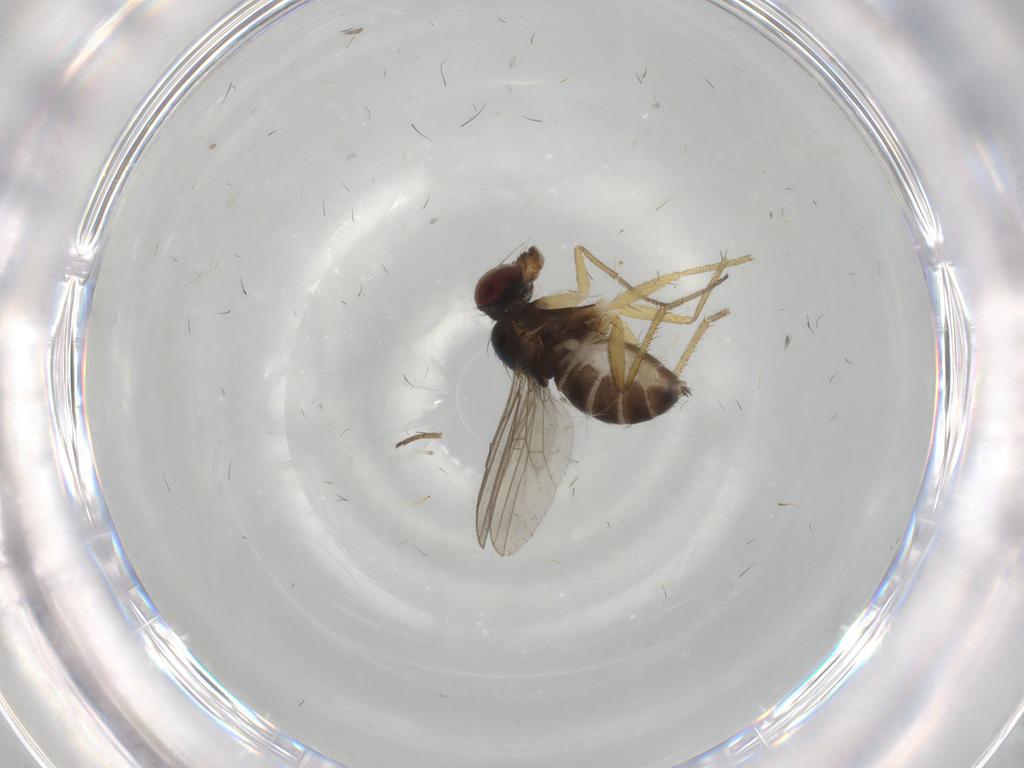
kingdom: Animalia
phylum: Arthropoda
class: Insecta
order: Diptera
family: Dolichopodidae
